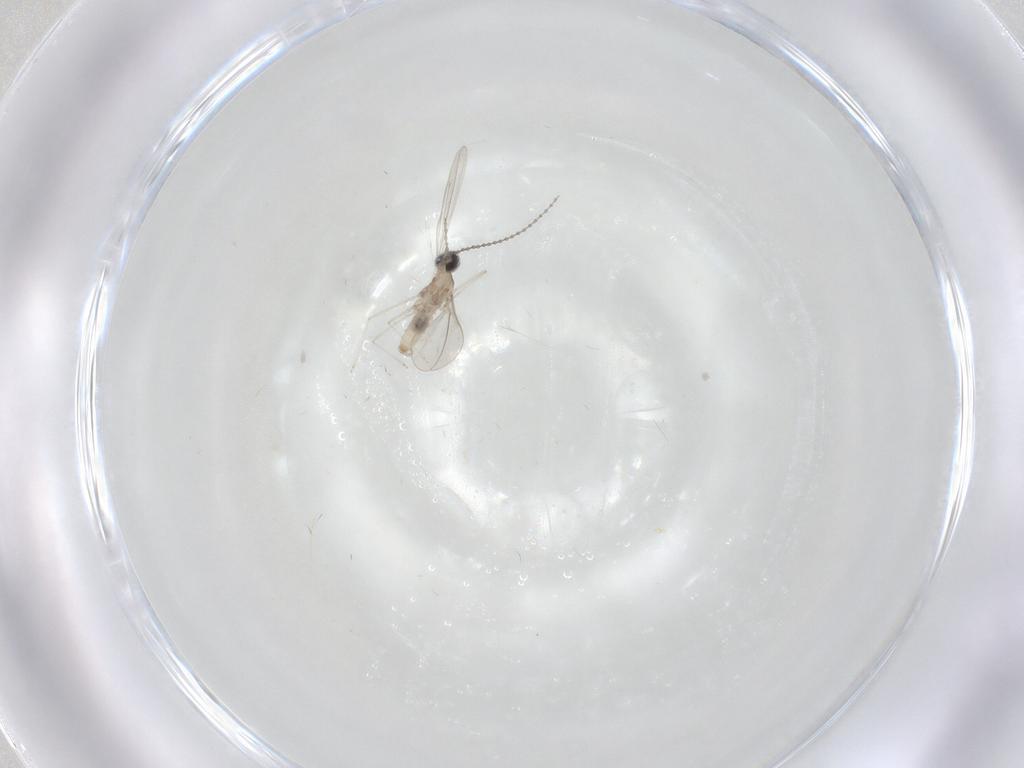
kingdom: Animalia
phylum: Arthropoda
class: Insecta
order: Diptera
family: Cecidomyiidae
